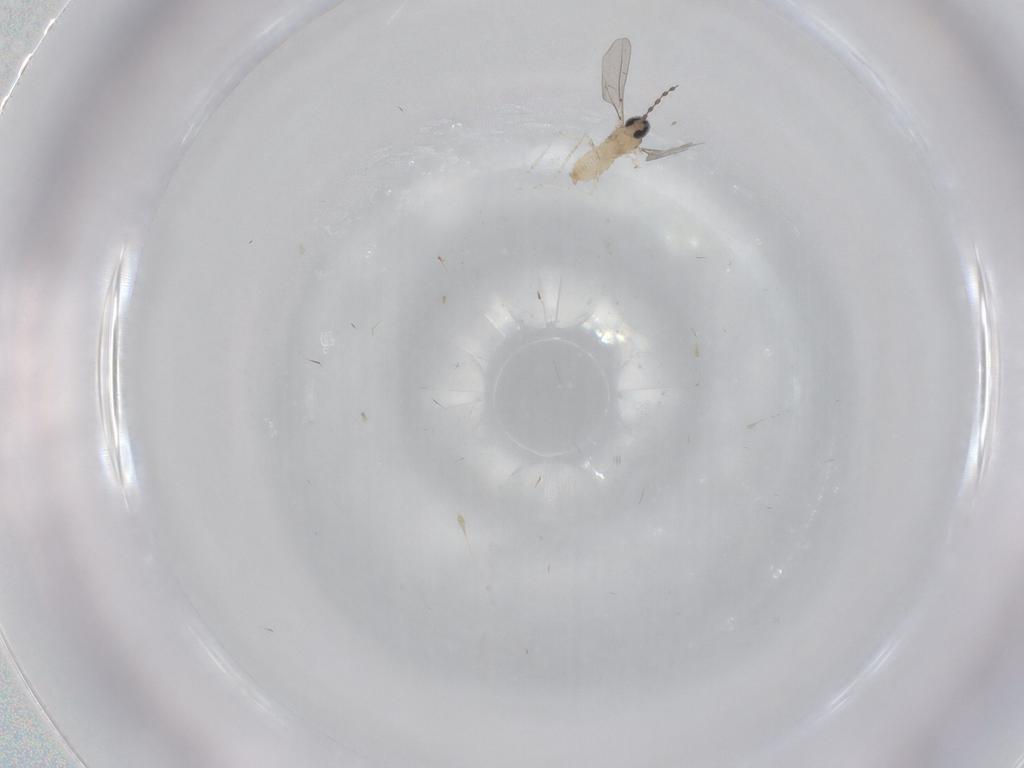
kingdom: Animalia
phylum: Arthropoda
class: Insecta
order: Diptera
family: Cecidomyiidae
